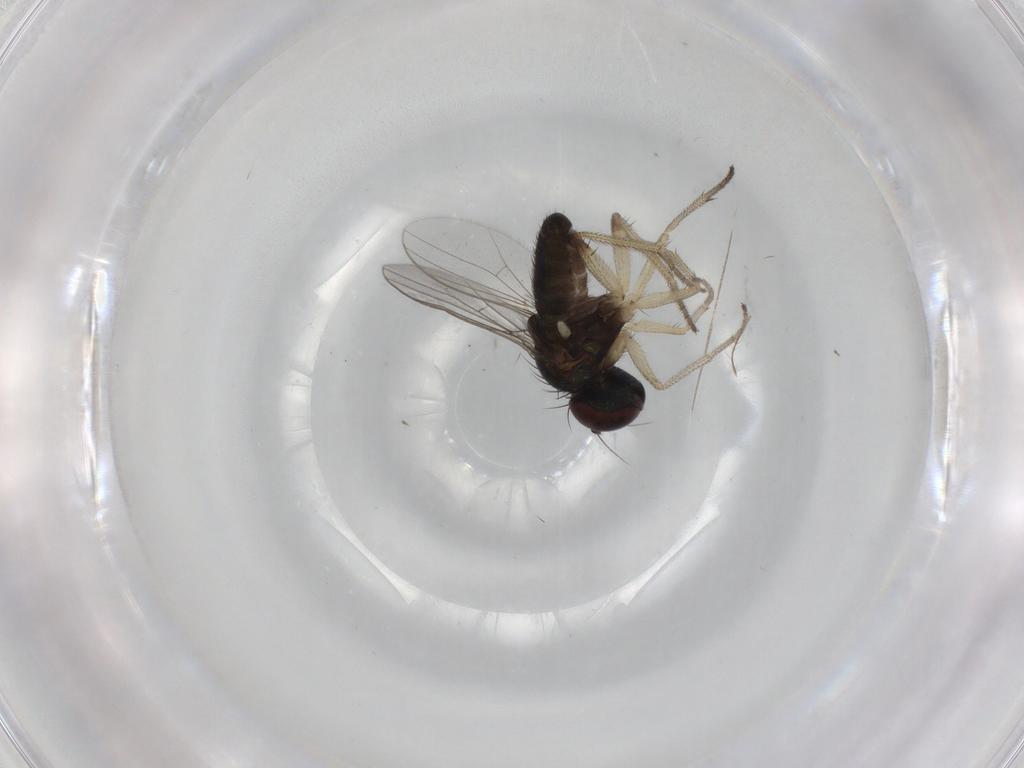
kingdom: Animalia
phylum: Arthropoda
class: Insecta
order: Diptera
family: Dolichopodidae
